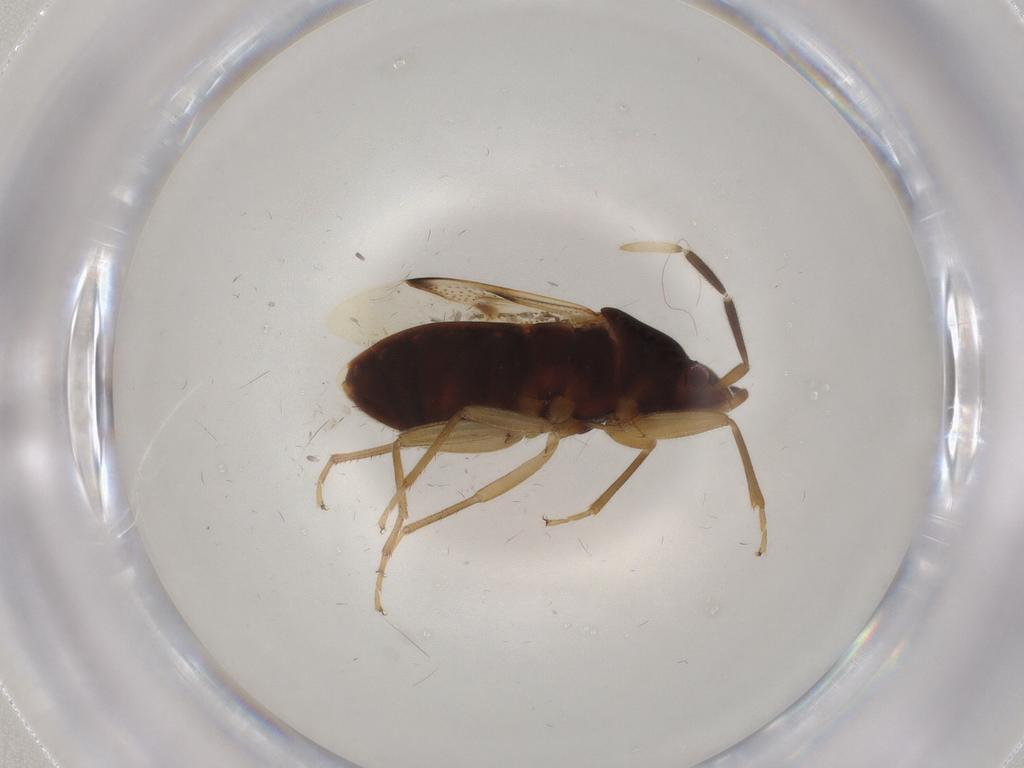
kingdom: Animalia
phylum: Arthropoda
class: Insecta
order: Hemiptera
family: Rhyparochromidae
